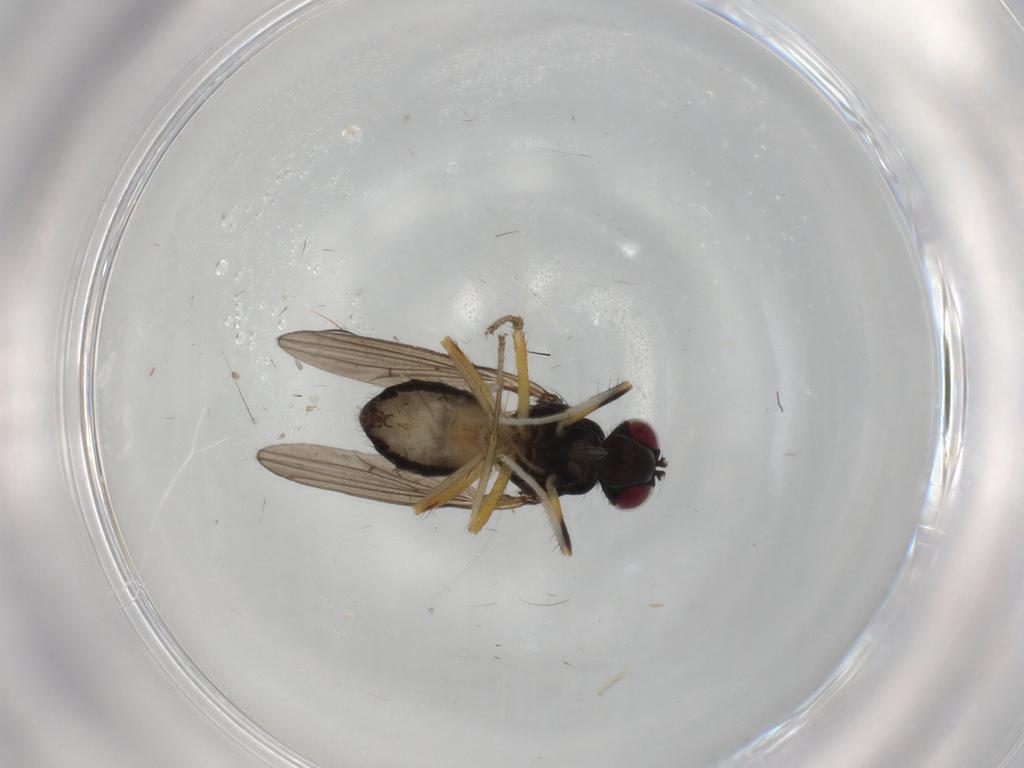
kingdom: Animalia
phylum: Arthropoda
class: Insecta
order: Diptera
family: Lauxaniidae
